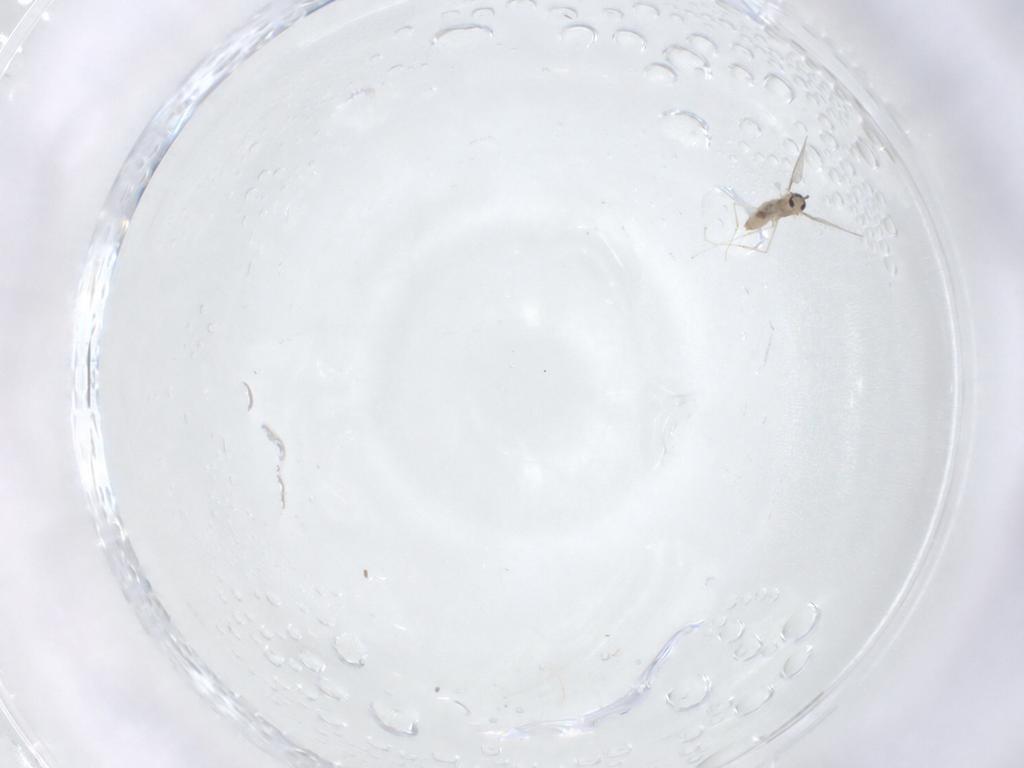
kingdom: Animalia
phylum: Arthropoda
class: Insecta
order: Diptera
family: Cecidomyiidae
